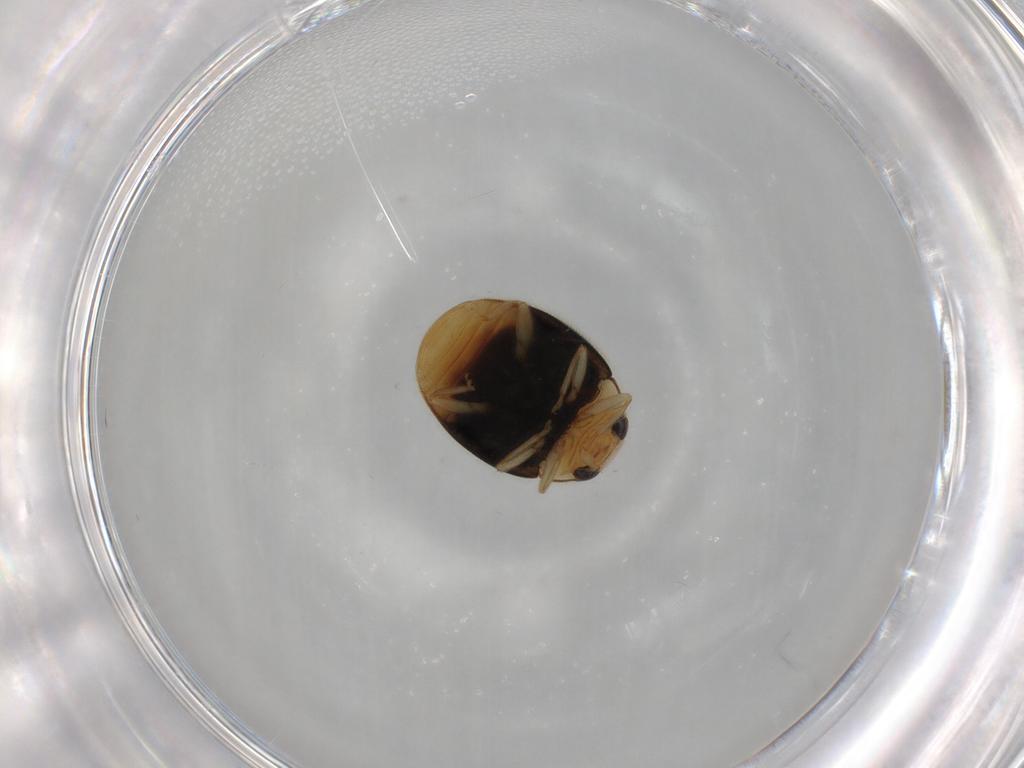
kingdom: Animalia
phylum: Arthropoda
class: Insecta
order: Coleoptera
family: Coccinellidae
